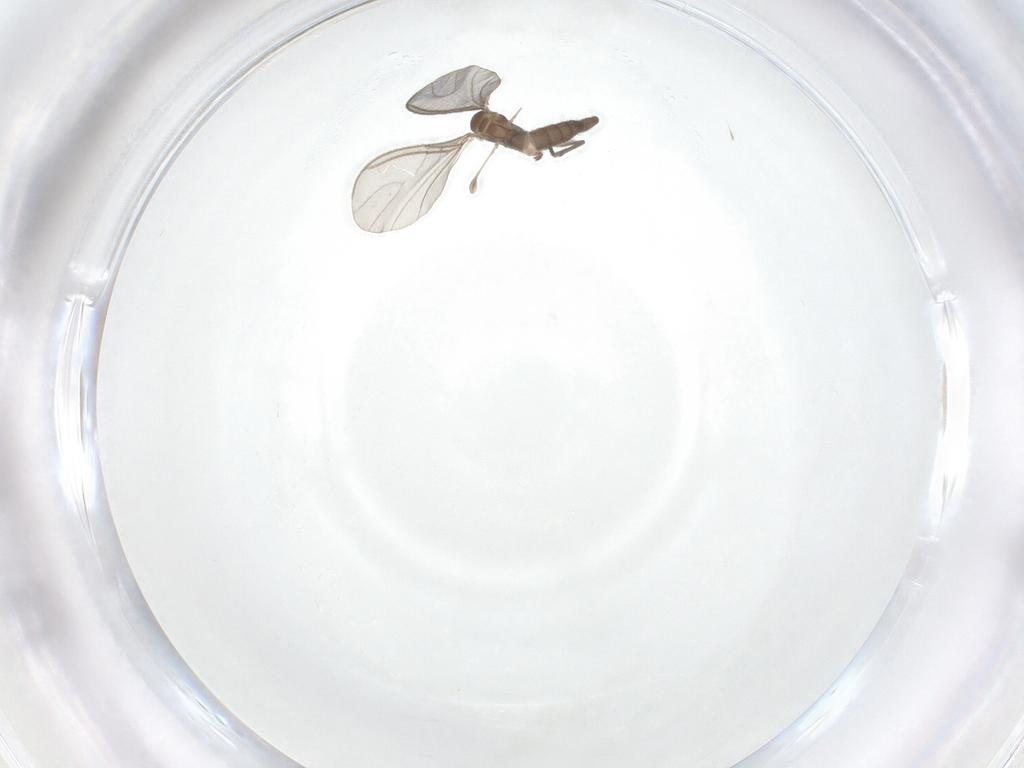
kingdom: Animalia
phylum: Arthropoda
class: Insecta
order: Diptera
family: Sciaridae
